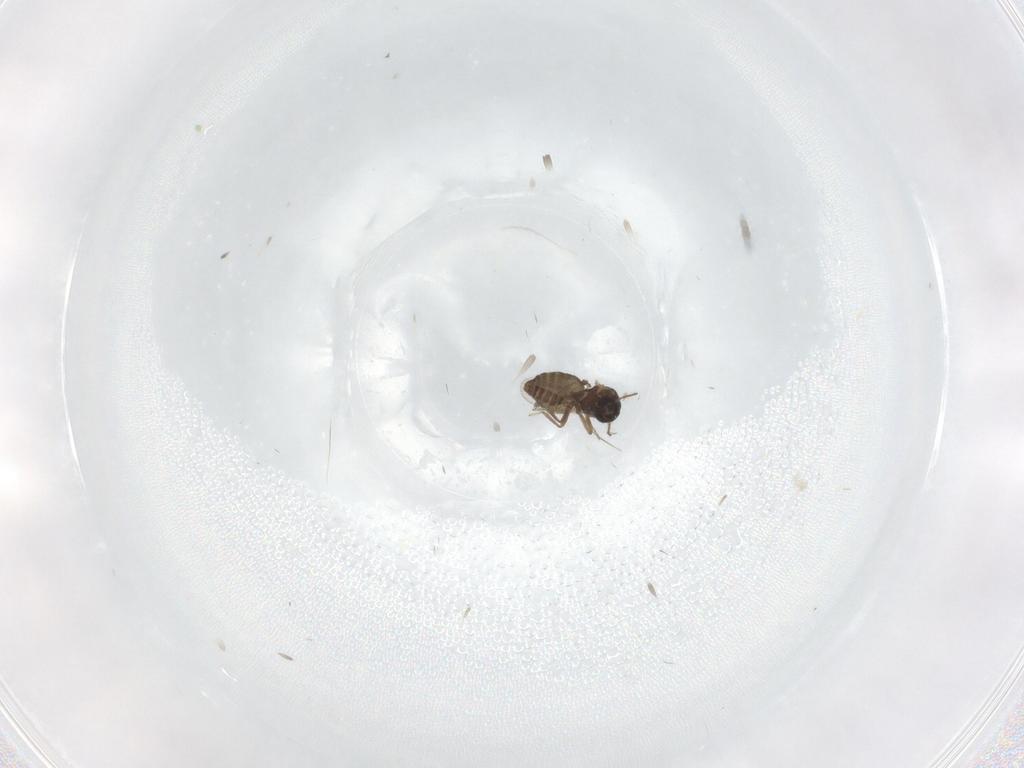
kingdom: Animalia
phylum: Arthropoda
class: Insecta
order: Diptera
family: Ceratopogonidae
